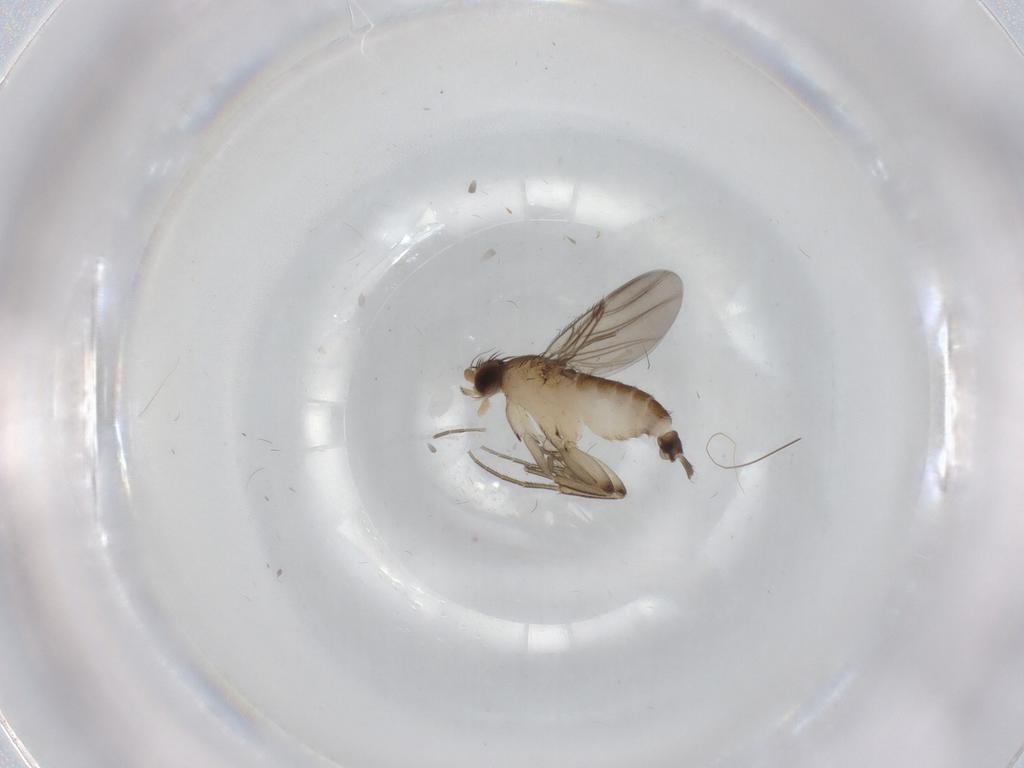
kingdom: Animalia
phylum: Arthropoda
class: Insecta
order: Diptera
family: Phoridae
